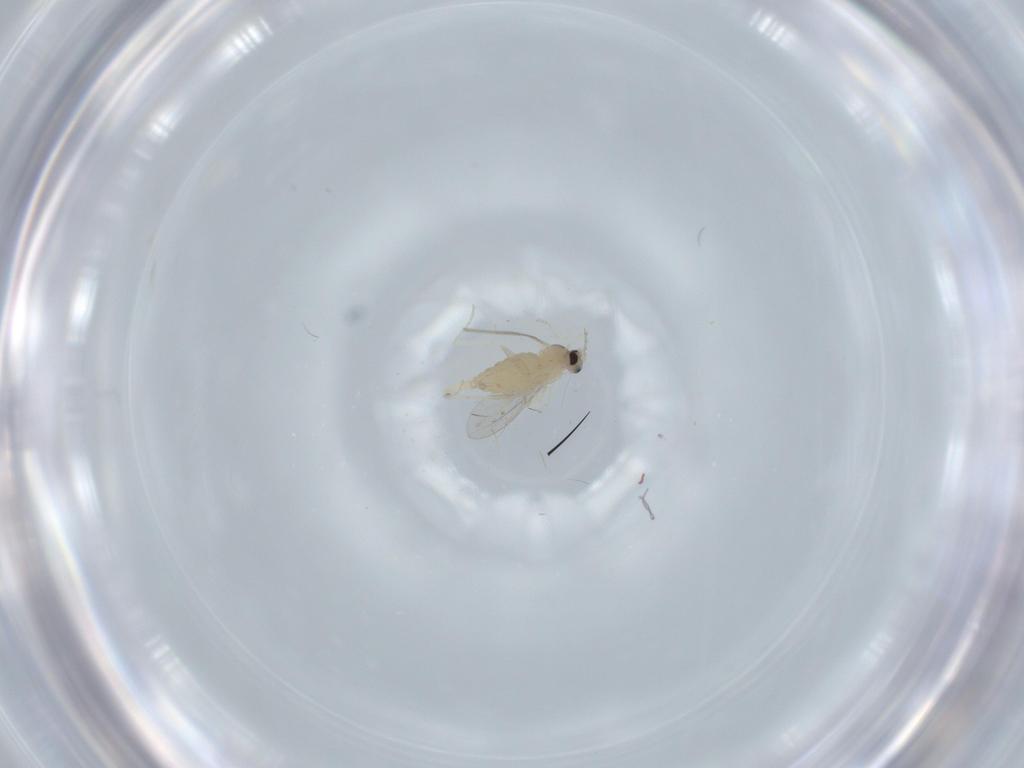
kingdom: Animalia
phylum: Arthropoda
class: Insecta
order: Diptera
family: Cecidomyiidae
